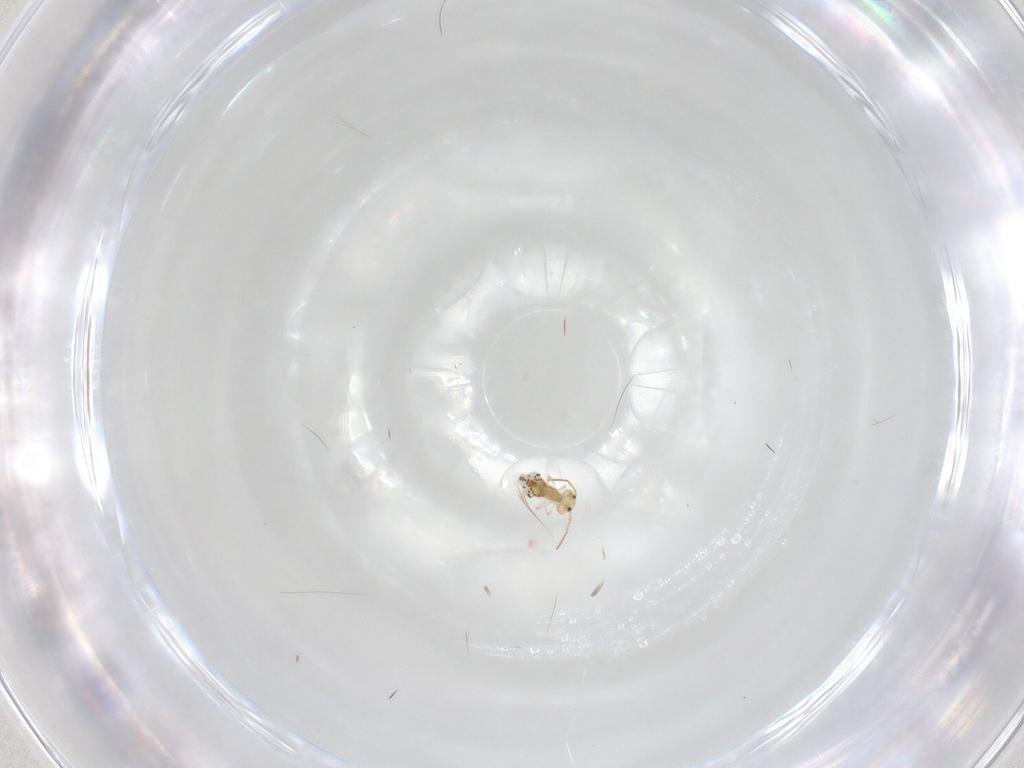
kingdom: Animalia
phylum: Arthropoda
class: Collembola
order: Symphypleona
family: Bourletiellidae
